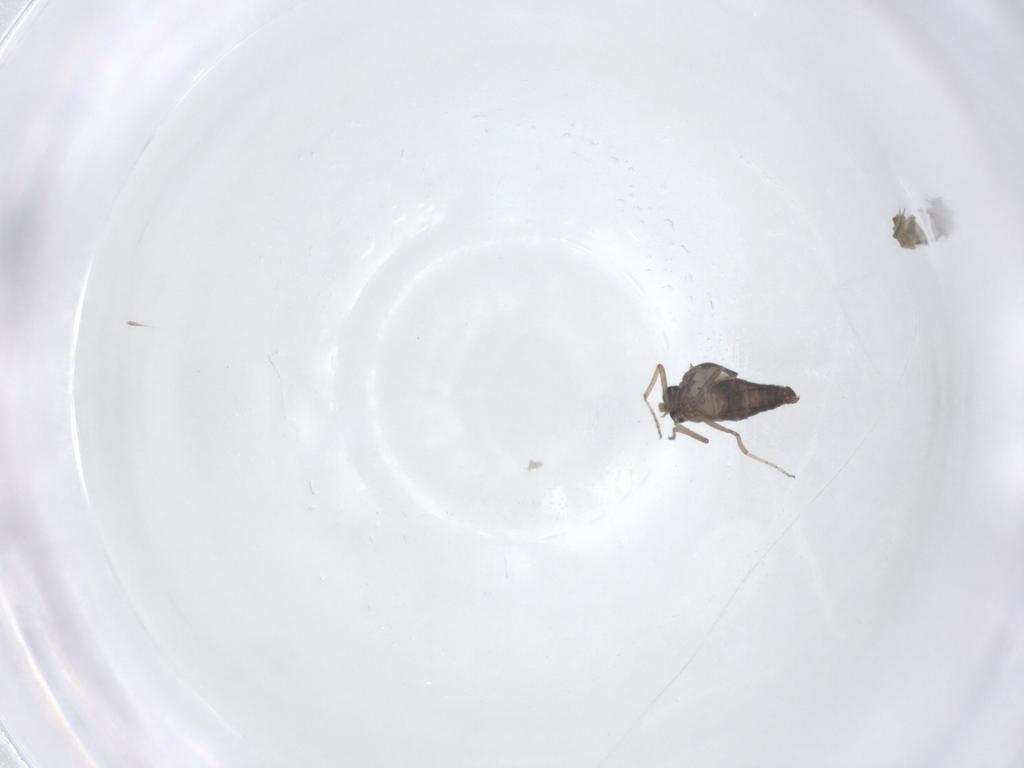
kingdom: Animalia
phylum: Arthropoda
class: Insecta
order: Diptera
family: Ceratopogonidae
